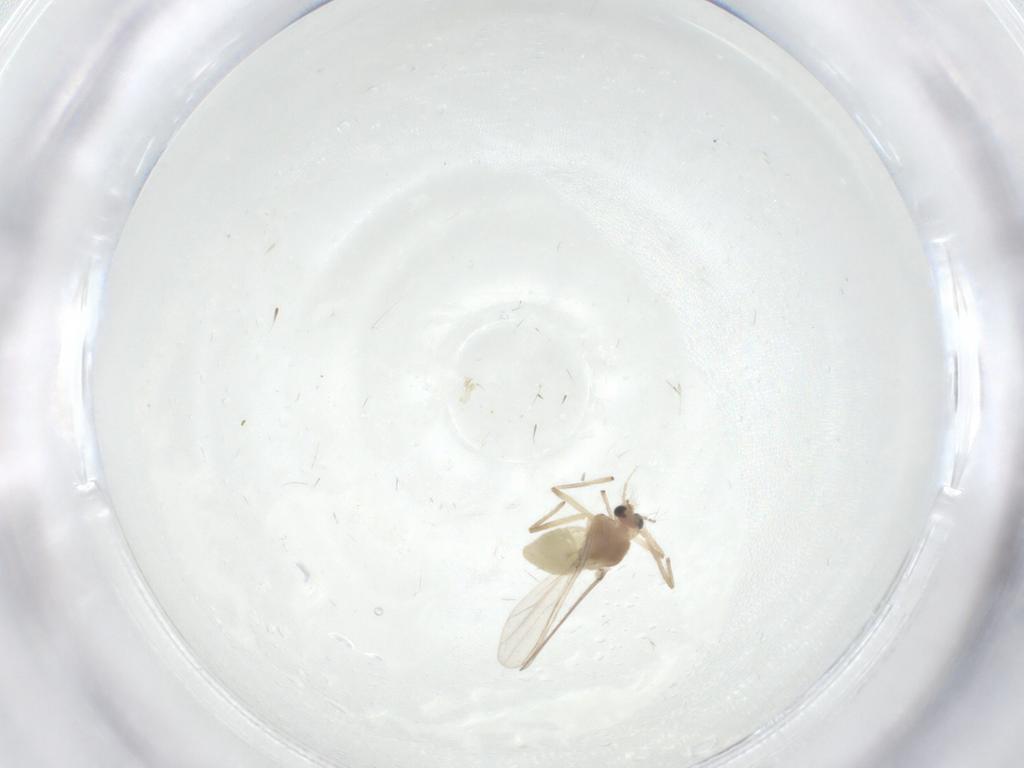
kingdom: Animalia
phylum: Arthropoda
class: Insecta
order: Diptera
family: Chironomidae
